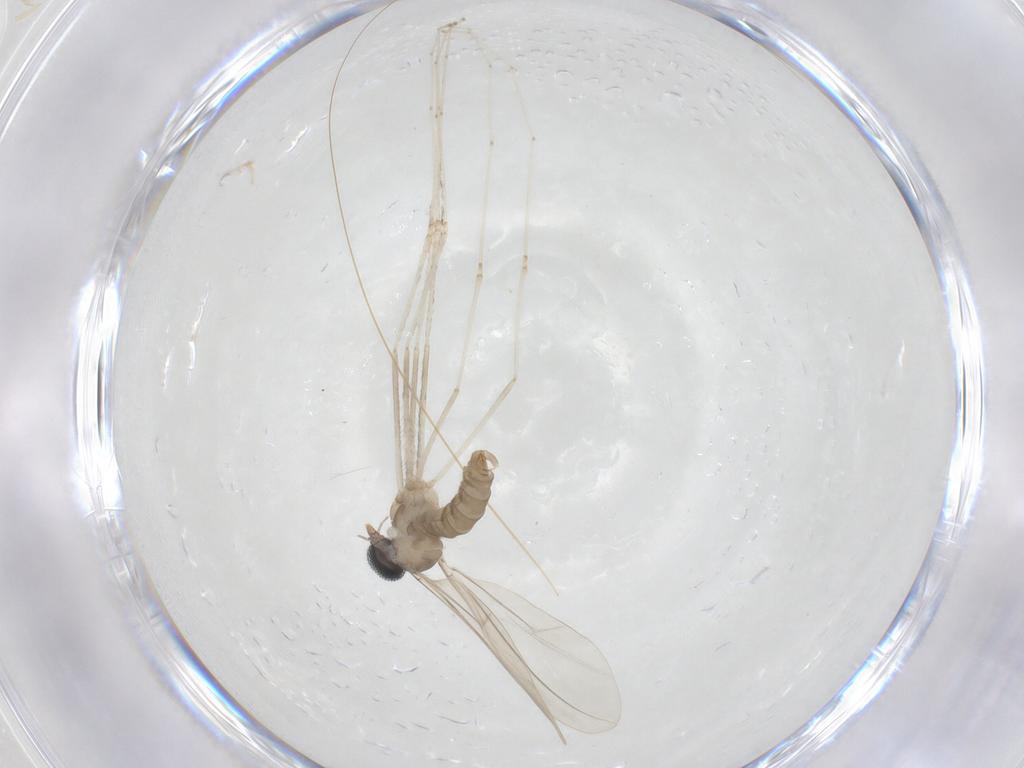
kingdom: Animalia
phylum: Arthropoda
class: Insecta
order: Diptera
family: Cecidomyiidae
